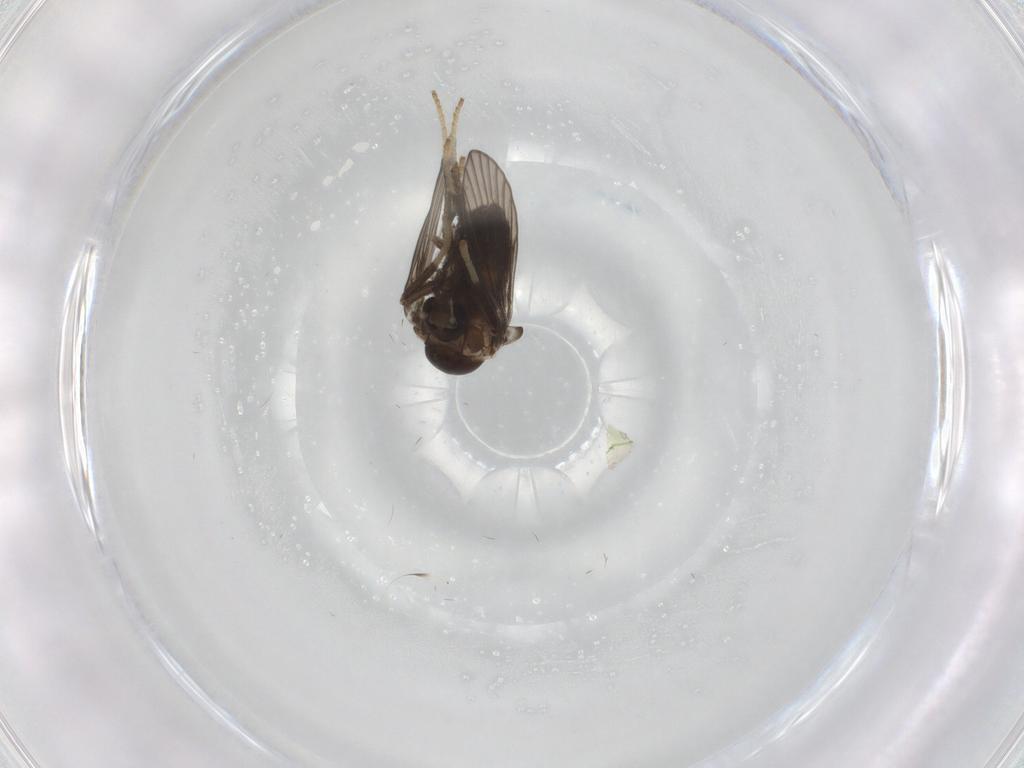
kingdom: Animalia
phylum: Arthropoda
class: Insecta
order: Diptera
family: Psychodidae
